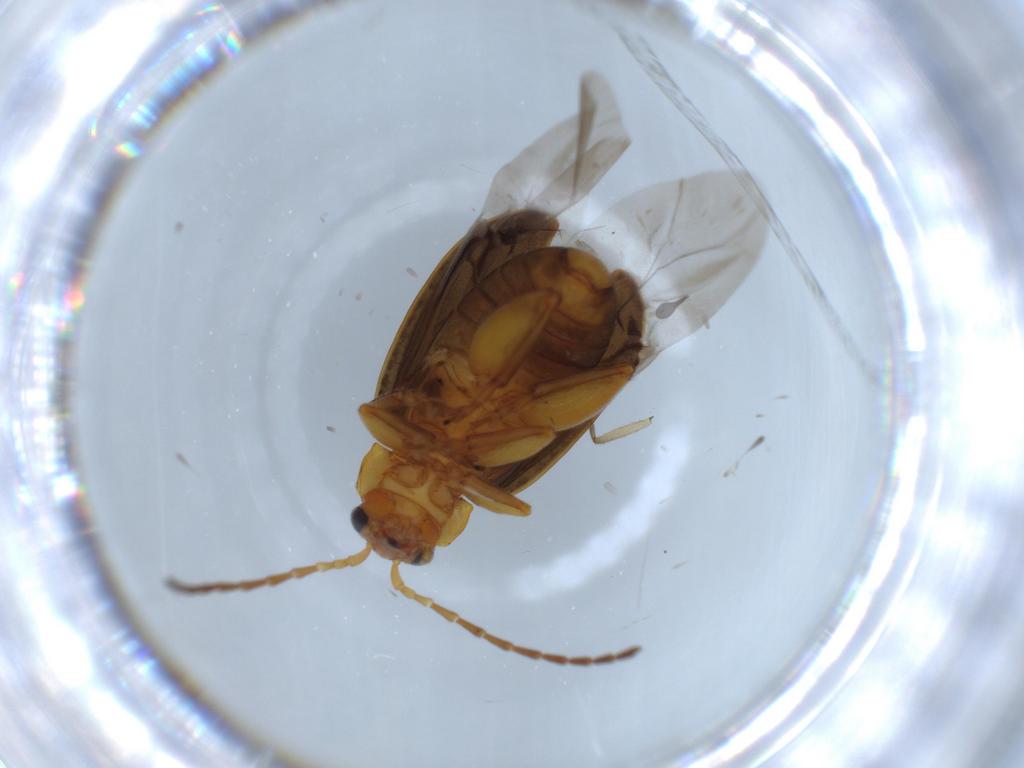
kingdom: Animalia
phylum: Arthropoda
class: Insecta
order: Coleoptera
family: Chrysomelidae
